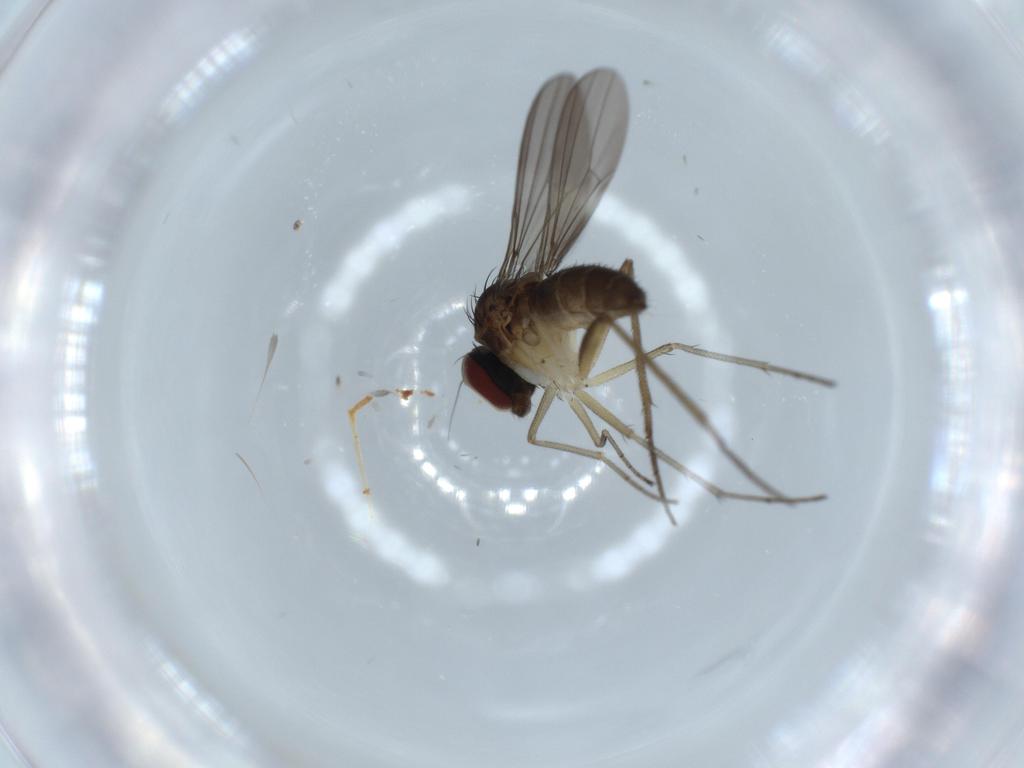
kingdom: Animalia
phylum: Arthropoda
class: Insecta
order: Diptera
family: Dolichopodidae
